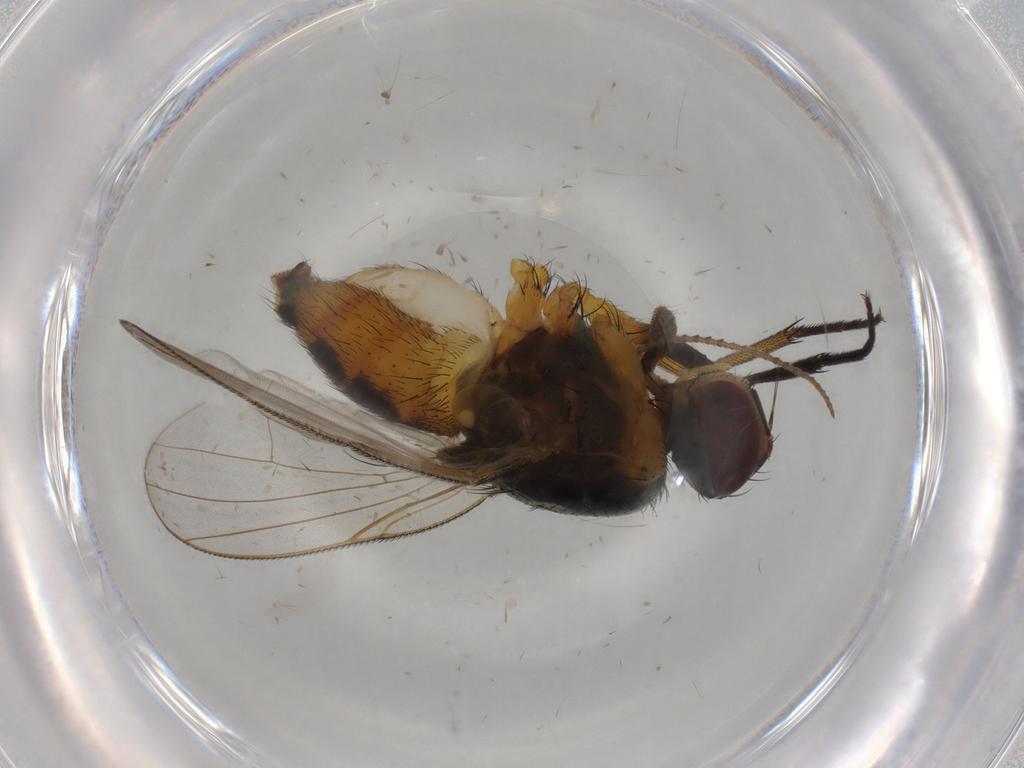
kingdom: Animalia
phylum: Arthropoda
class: Insecta
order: Diptera
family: Muscidae
